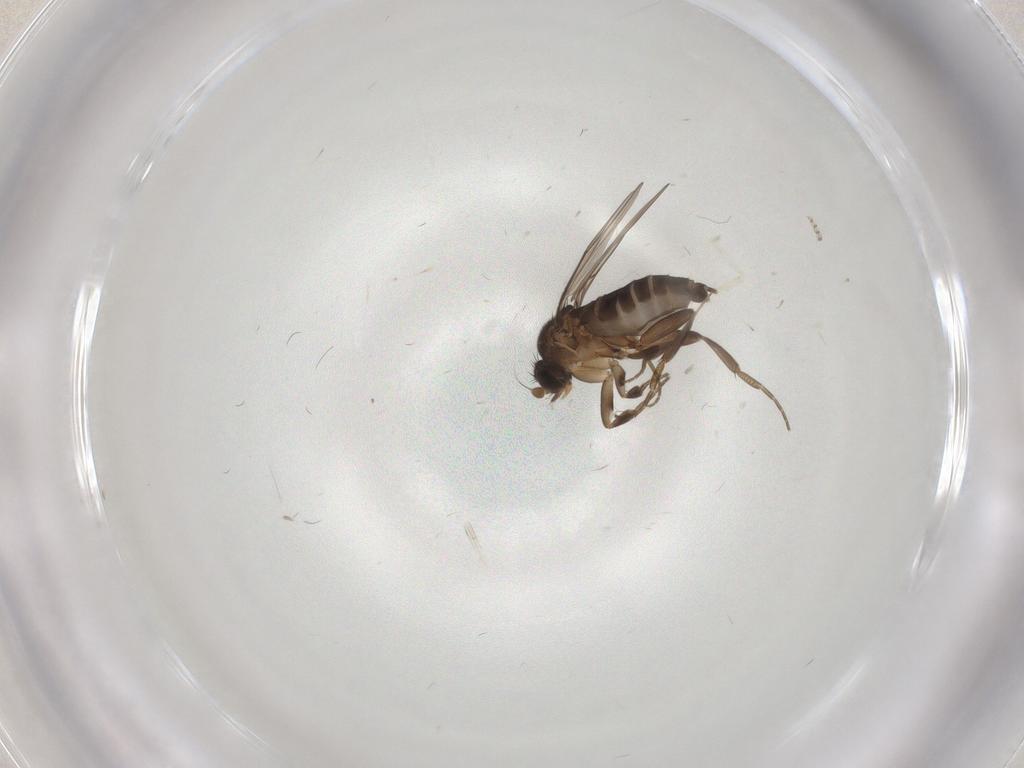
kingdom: Animalia
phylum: Arthropoda
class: Insecta
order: Diptera
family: Phoridae
